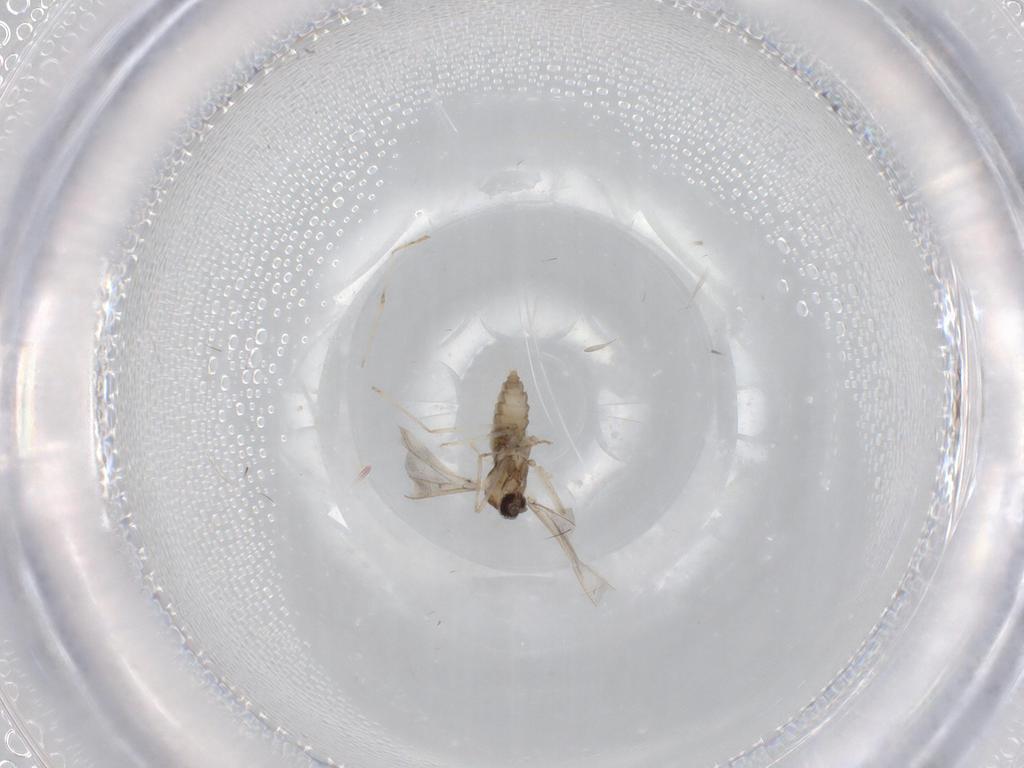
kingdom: Animalia
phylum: Arthropoda
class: Insecta
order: Diptera
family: Cecidomyiidae
